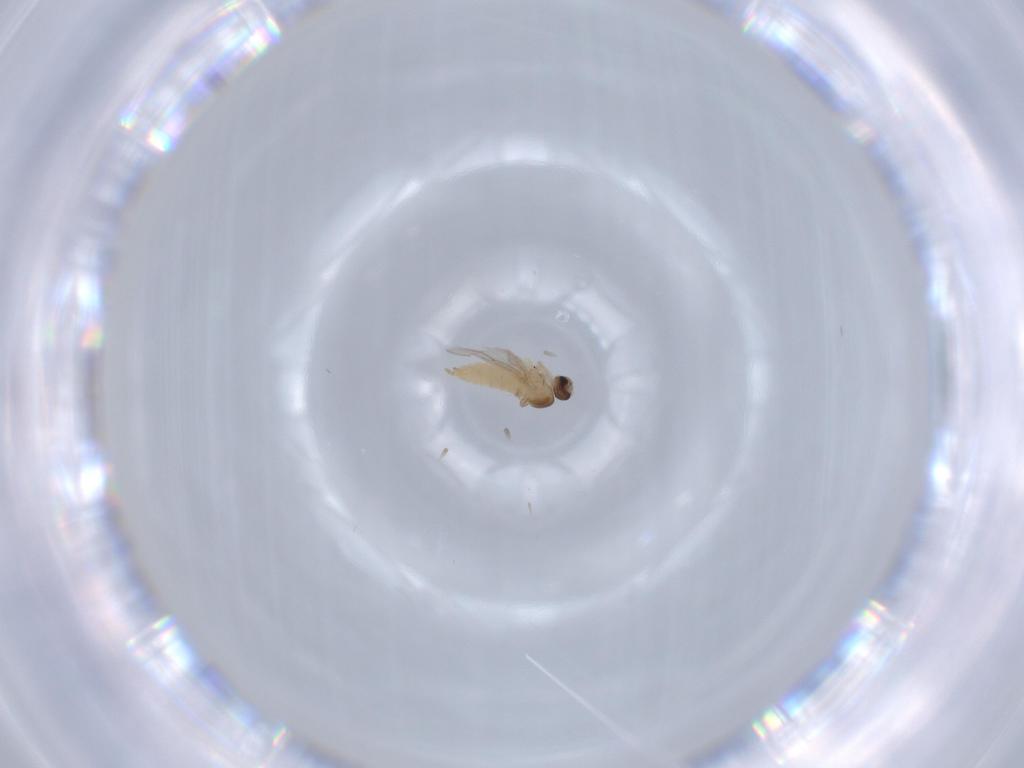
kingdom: Animalia
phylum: Arthropoda
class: Insecta
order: Diptera
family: Cecidomyiidae
